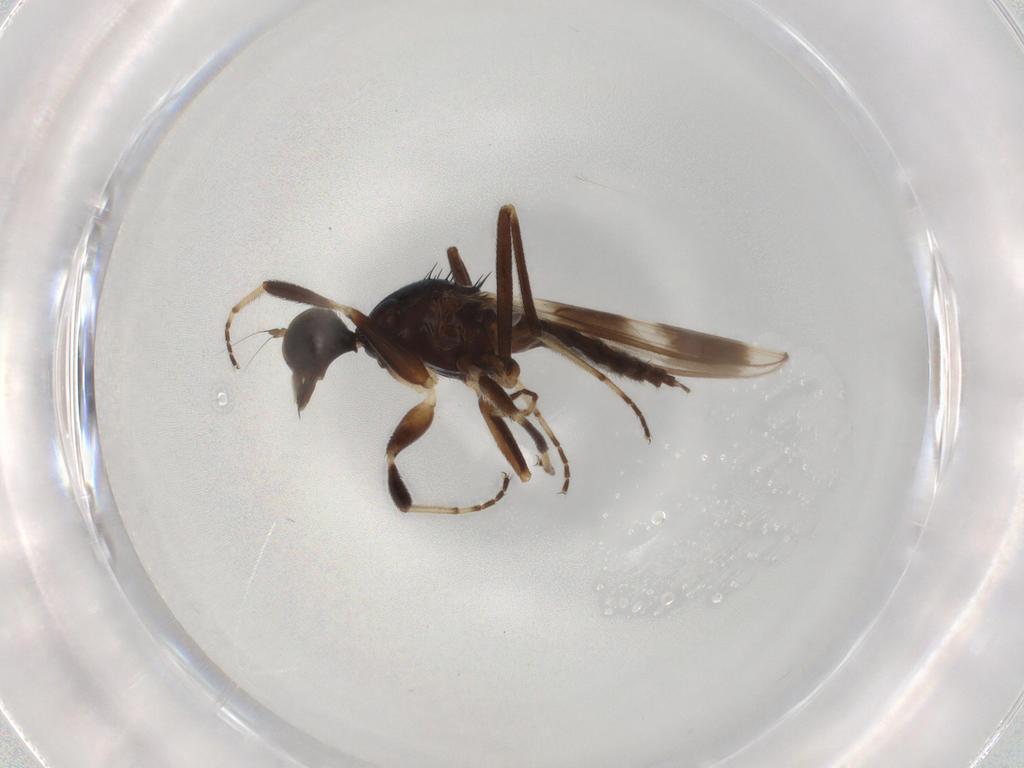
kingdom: Animalia
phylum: Arthropoda
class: Insecta
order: Diptera
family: Hybotidae
